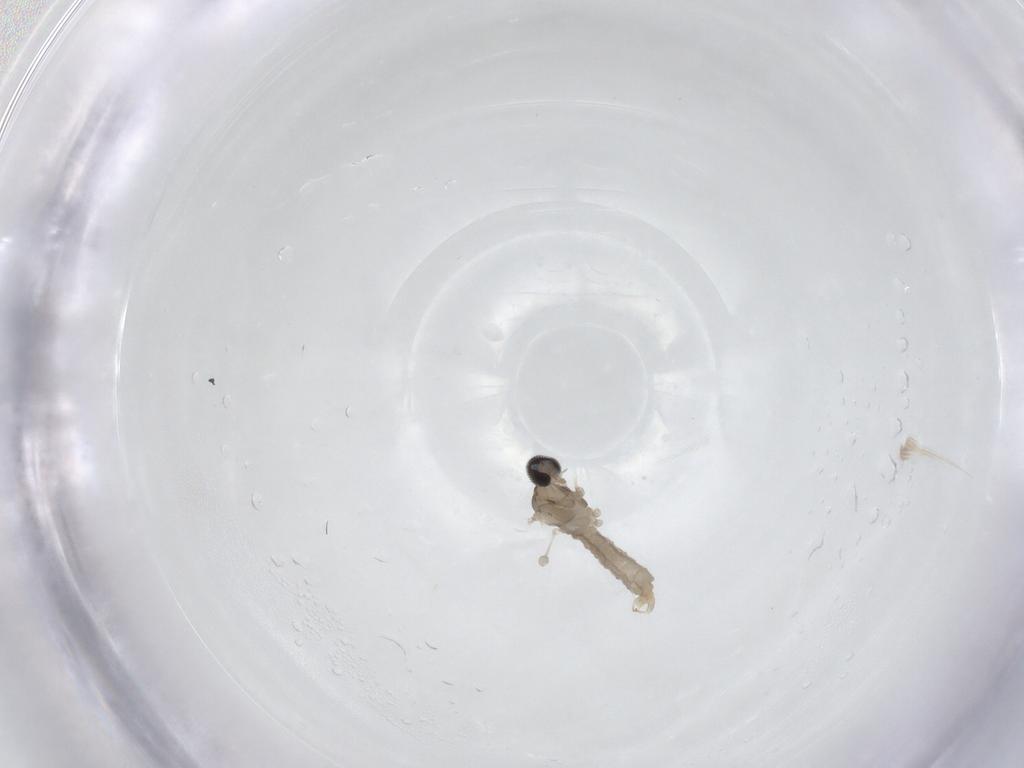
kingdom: Animalia
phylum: Arthropoda
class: Insecta
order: Diptera
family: Cecidomyiidae
